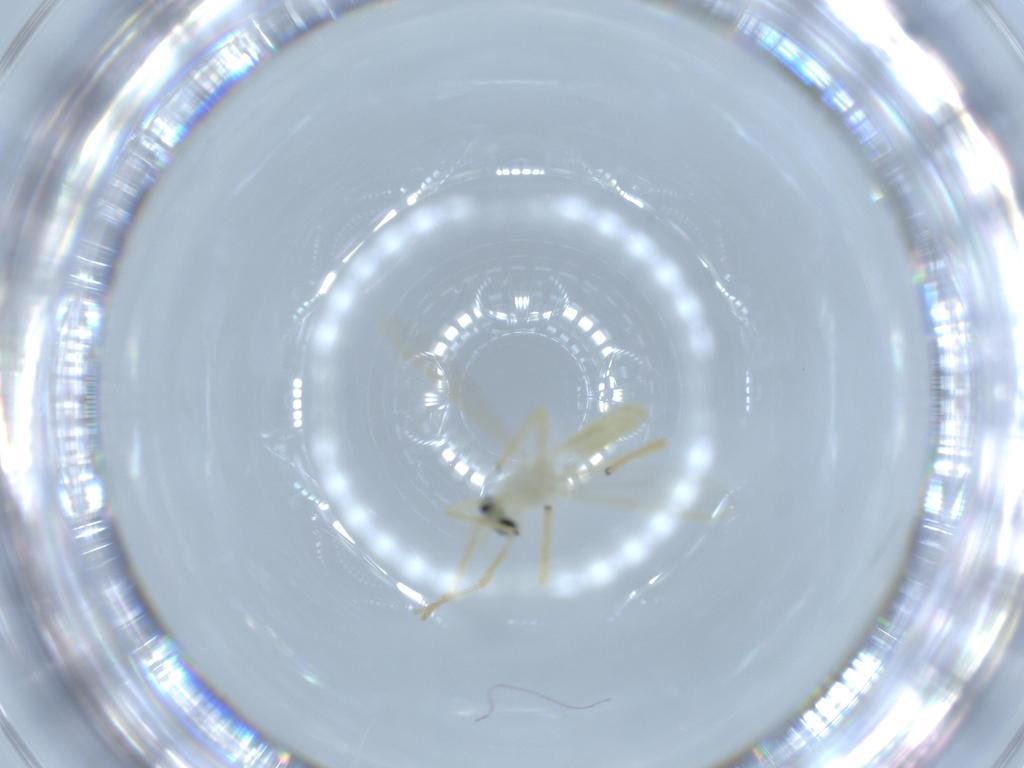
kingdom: Animalia
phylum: Arthropoda
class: Insecta
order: Diptera
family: Chironomidae
